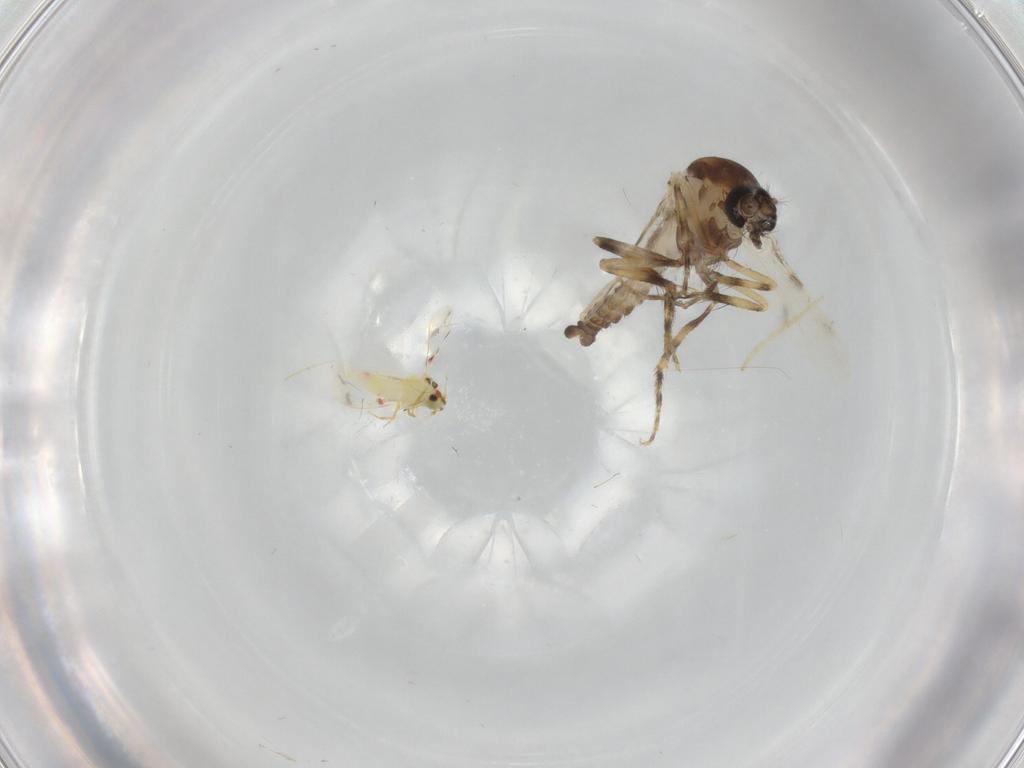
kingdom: Animalia
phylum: Arthropoda
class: Insecta
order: Diptera
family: Ceratopogonidae
